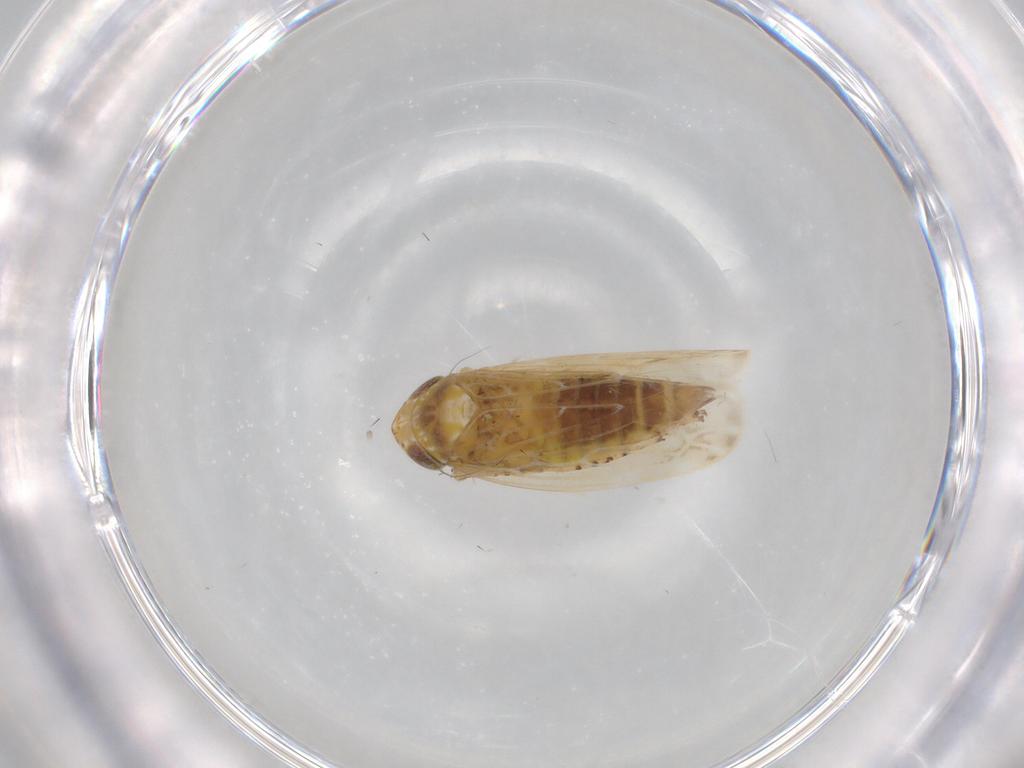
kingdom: Animalia
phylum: Arthropoda
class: Insecta
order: Hemiptera
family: Cicadellidae
